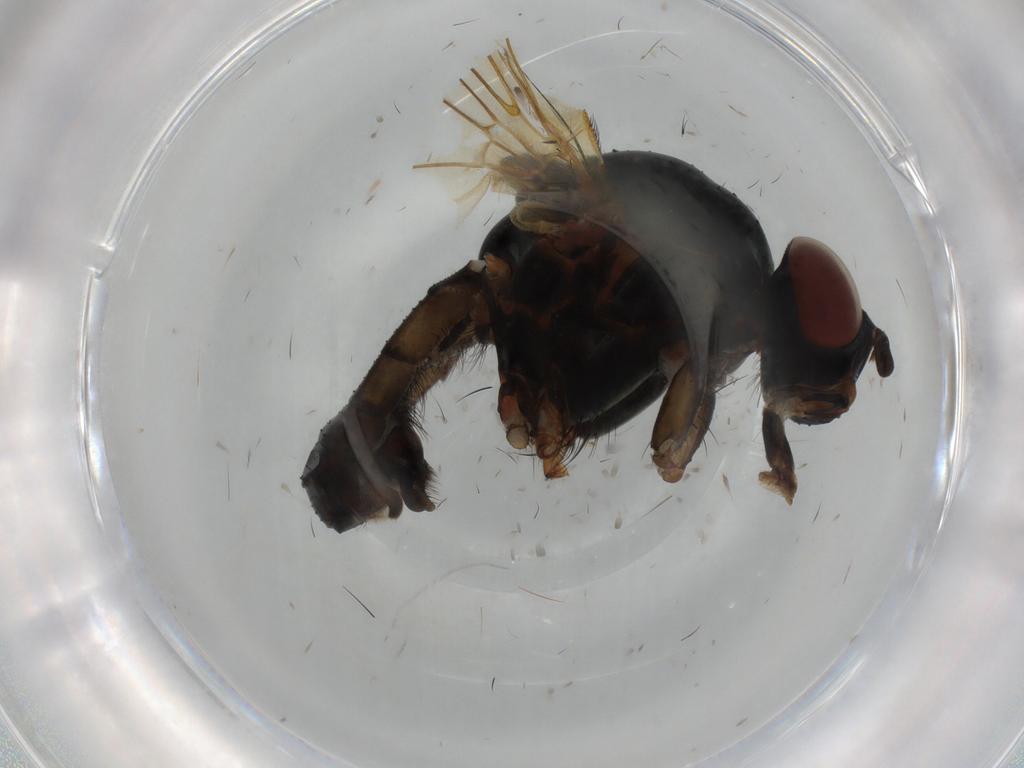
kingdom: Animalia
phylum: Arthropoda
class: Insecta
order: Diptera
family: Anthomyiidae
